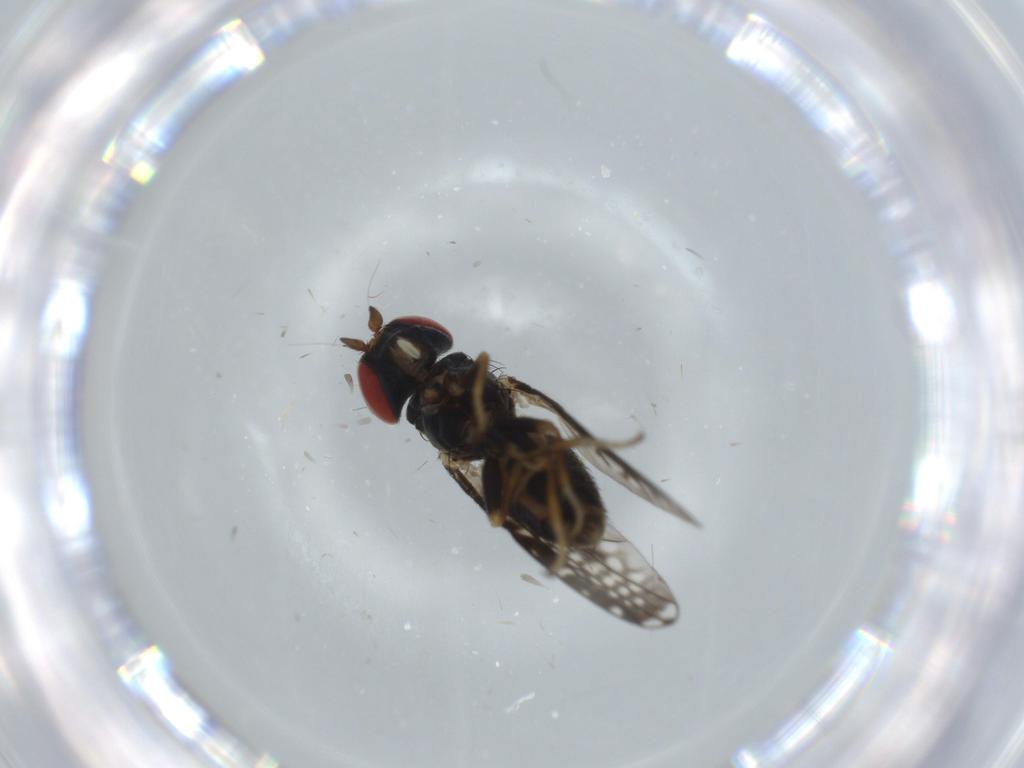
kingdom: Animalia
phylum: Arthropoda
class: Insecta
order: Diptera
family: Chamaemyiidae
